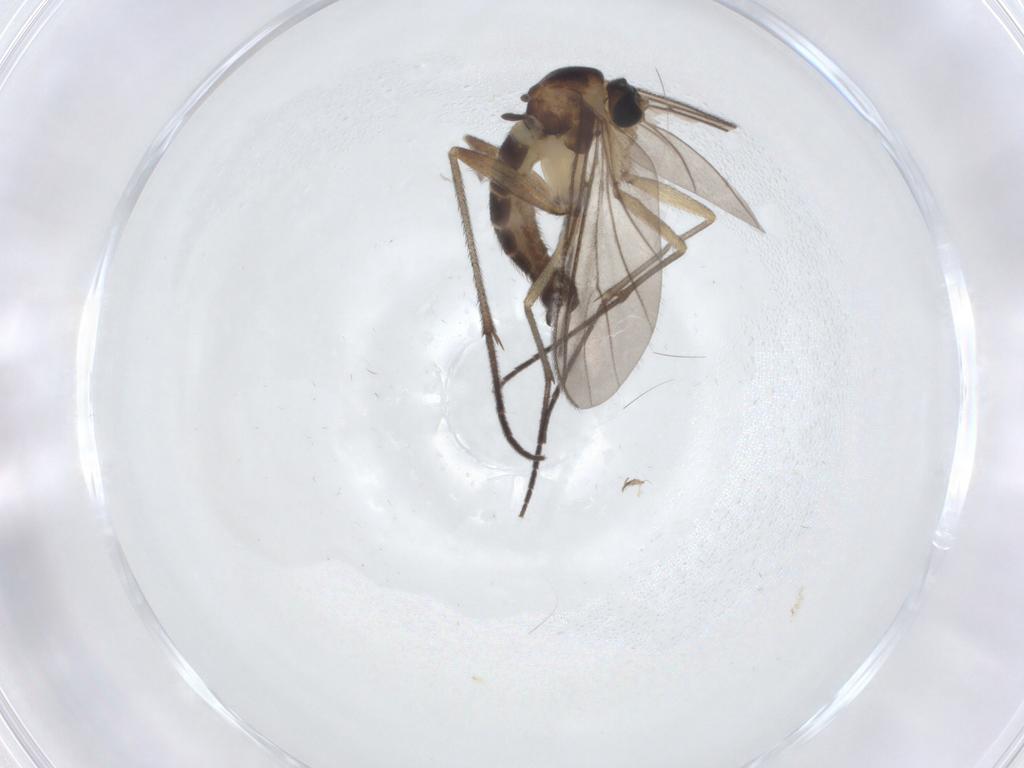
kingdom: Animalia
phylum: Arthropoda
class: Insecta
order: Diptera
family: Sciaridae
